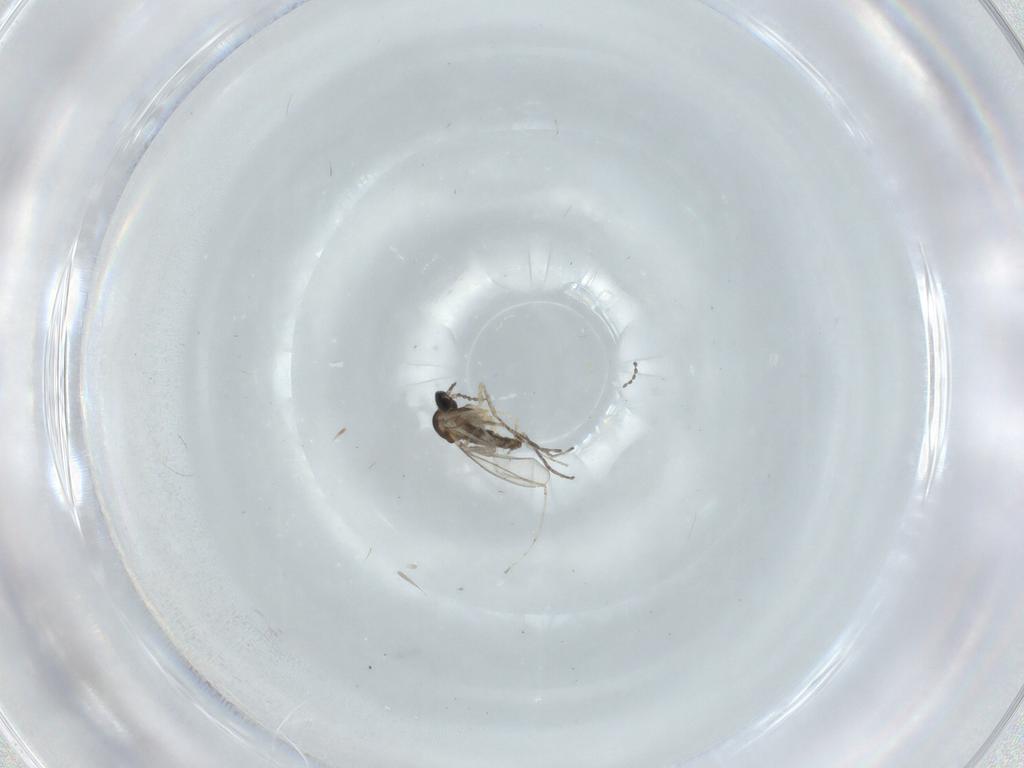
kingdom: Animalia
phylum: Arthropoda
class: Insecta
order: Diptera
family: Cecidomyiidae
